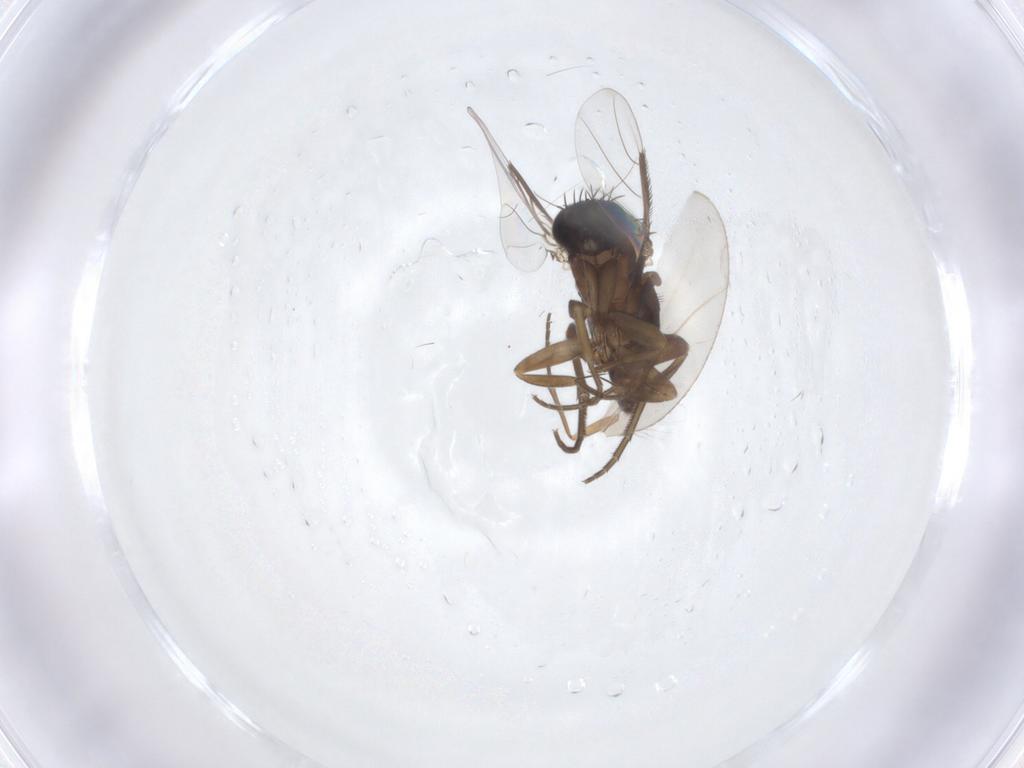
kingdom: Animalia
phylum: Arthropoda
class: Insecta
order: Diptera
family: Phoridae
